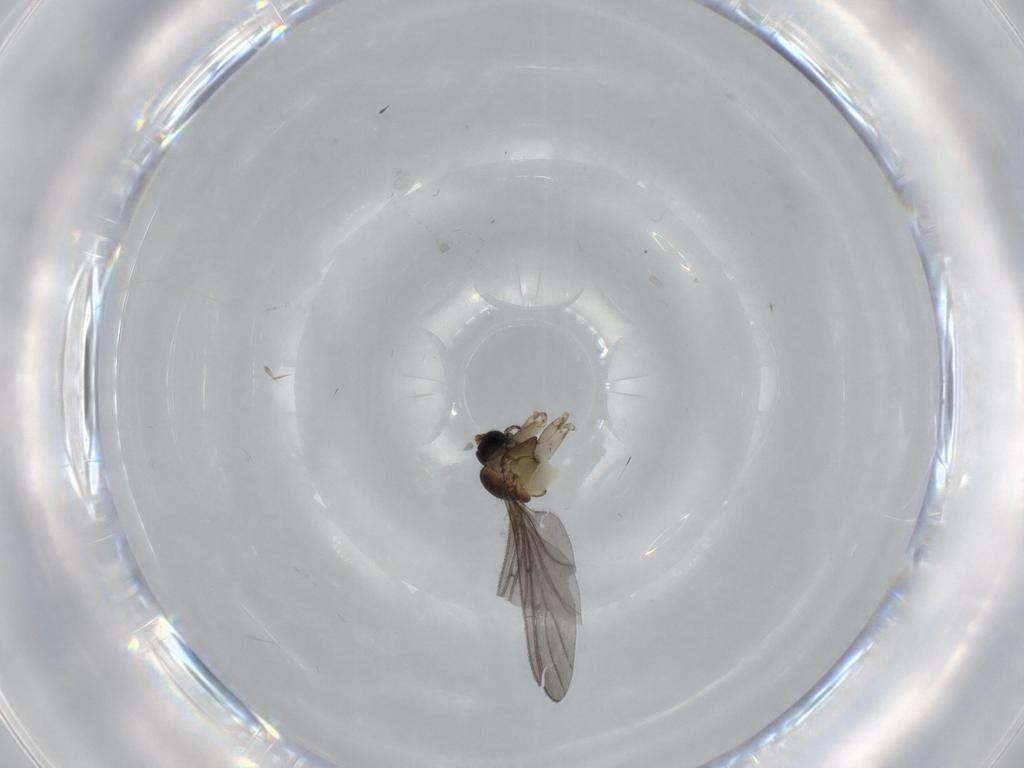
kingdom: Animalia
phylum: Arthropoda
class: Insecta
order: Diptera
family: Sciaridae
